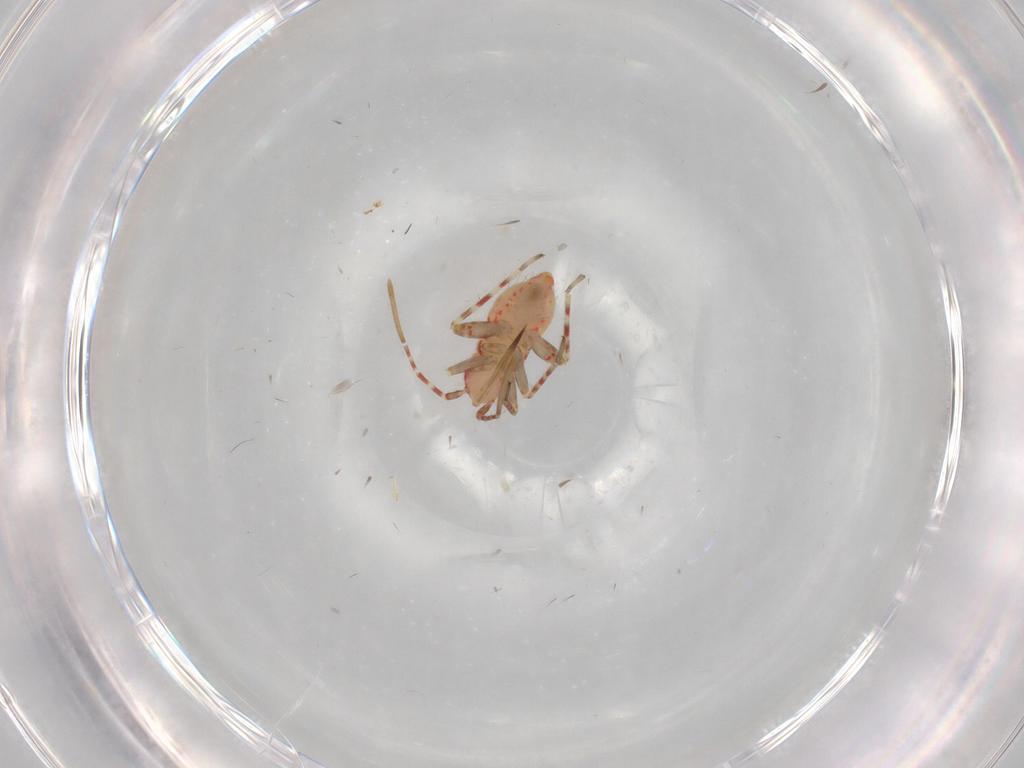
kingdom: Animalia
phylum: Arthropoda
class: Insecta
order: Hemiptera
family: Miridae
